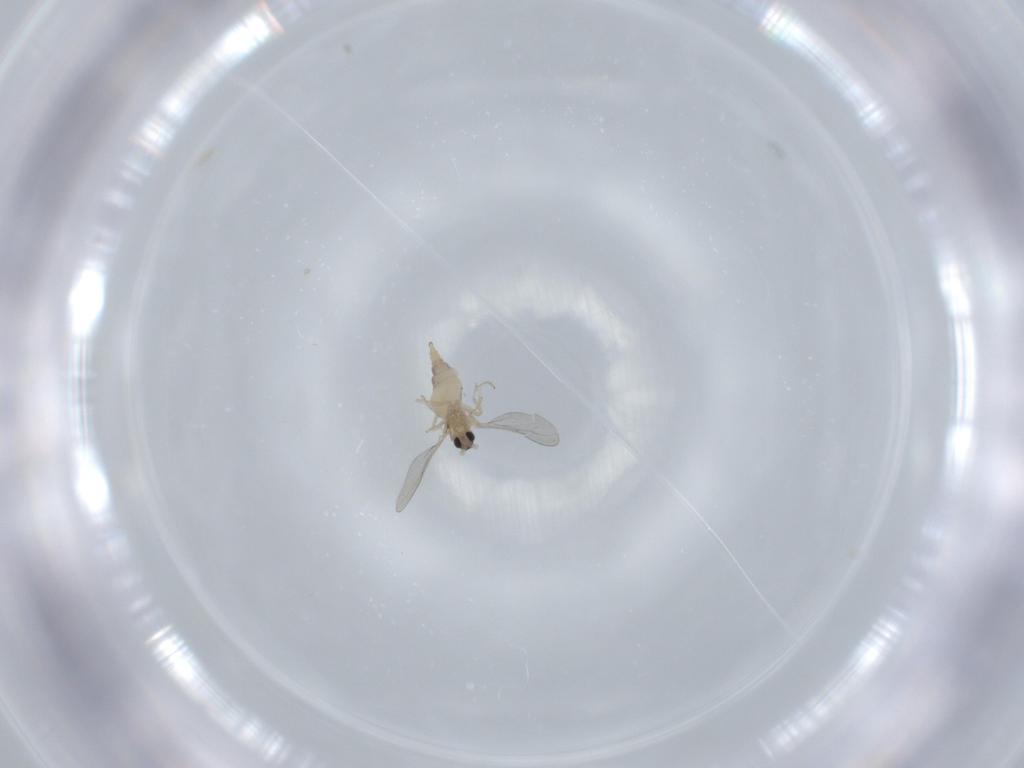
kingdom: Animalia
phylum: Arthropoda
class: Insecta
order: Diptera
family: Cecidomyiidae
